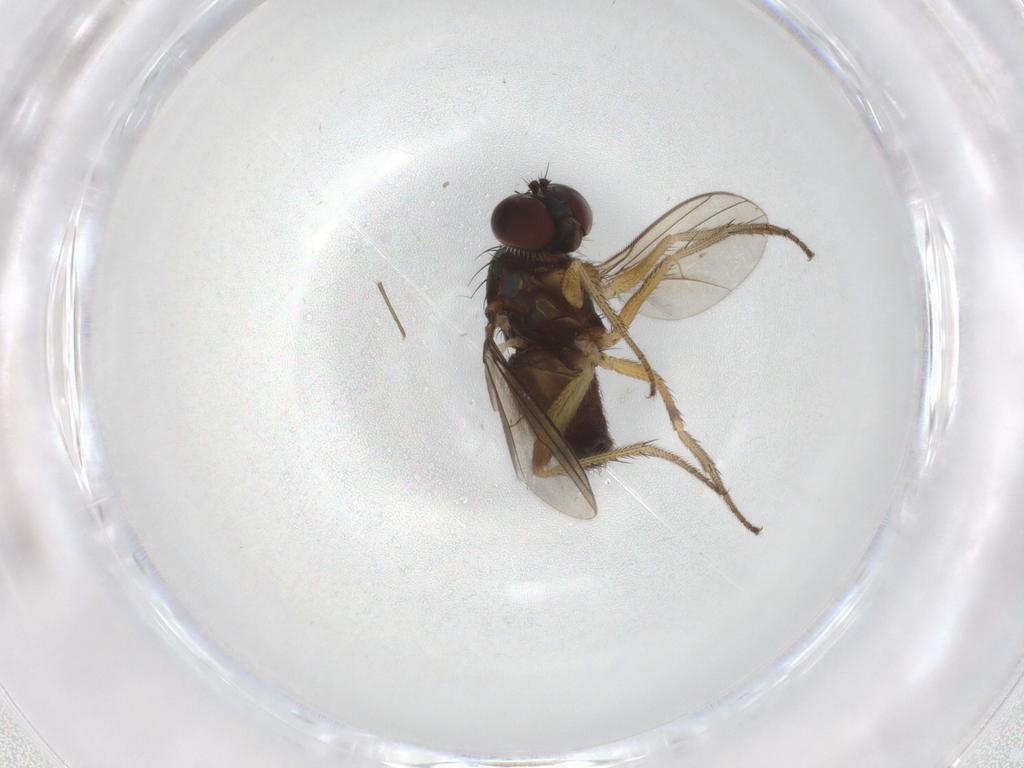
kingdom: Animalia
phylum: Arthropoda
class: Insecta
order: Diptera
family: Dolichopodidae
